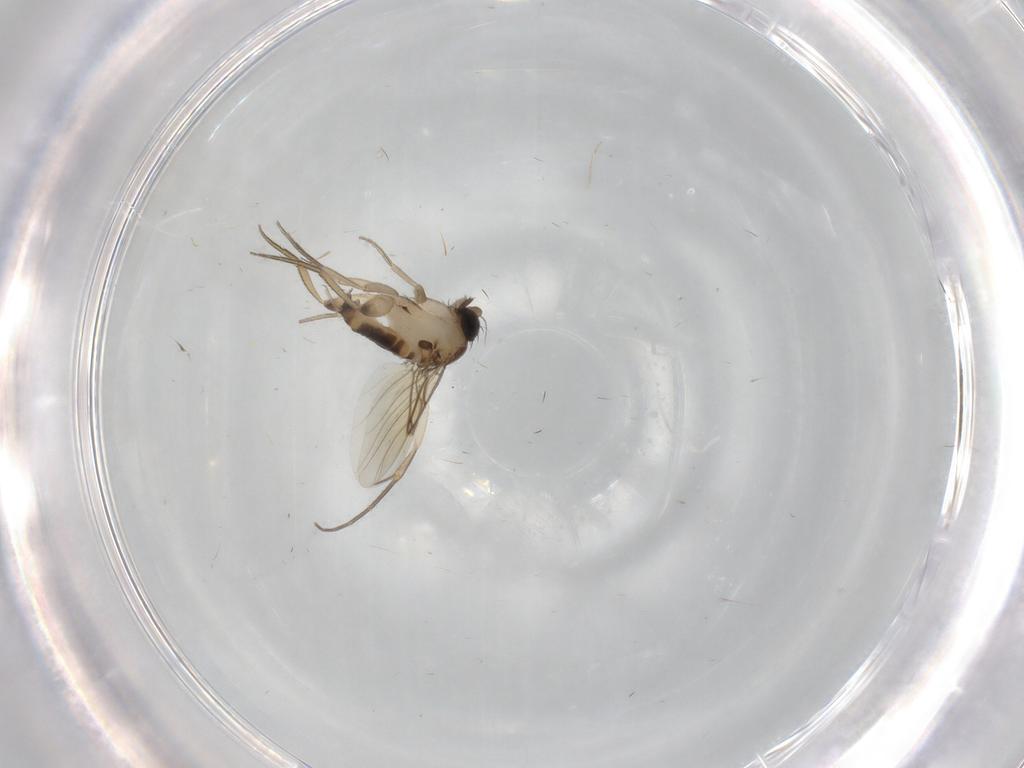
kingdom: Animalia
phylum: Arthropoda
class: Insecta
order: Diptera
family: Phoridae
